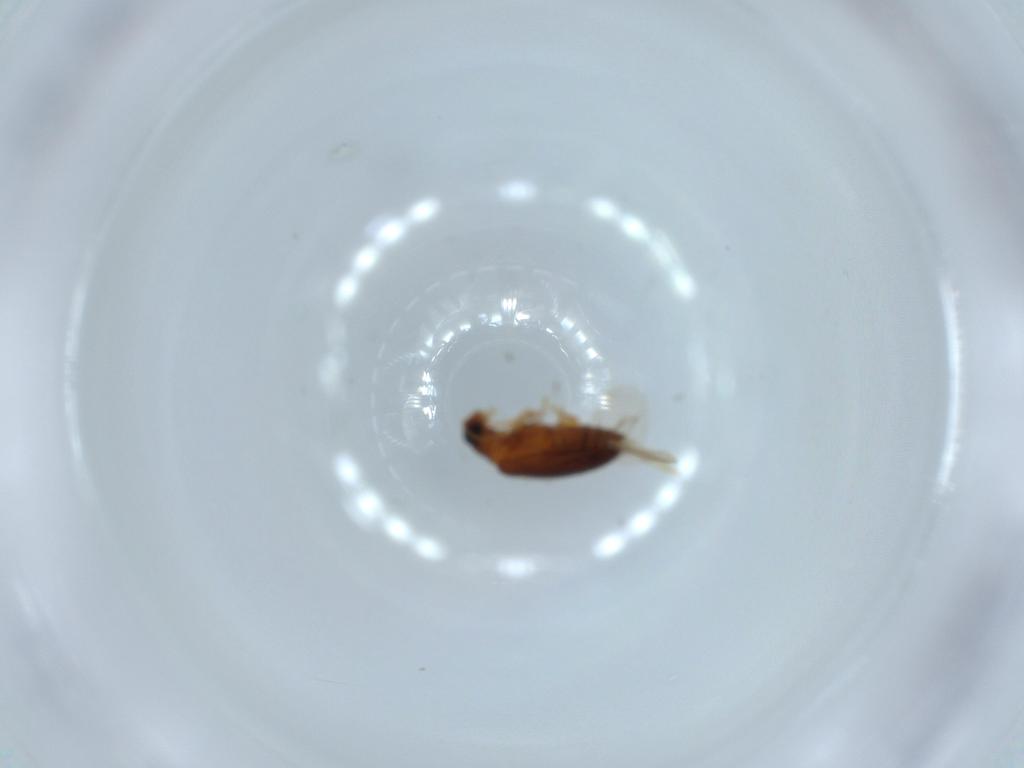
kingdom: Animalia
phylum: Arthropoda
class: Insecta
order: Coleoptera
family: Aderidae
